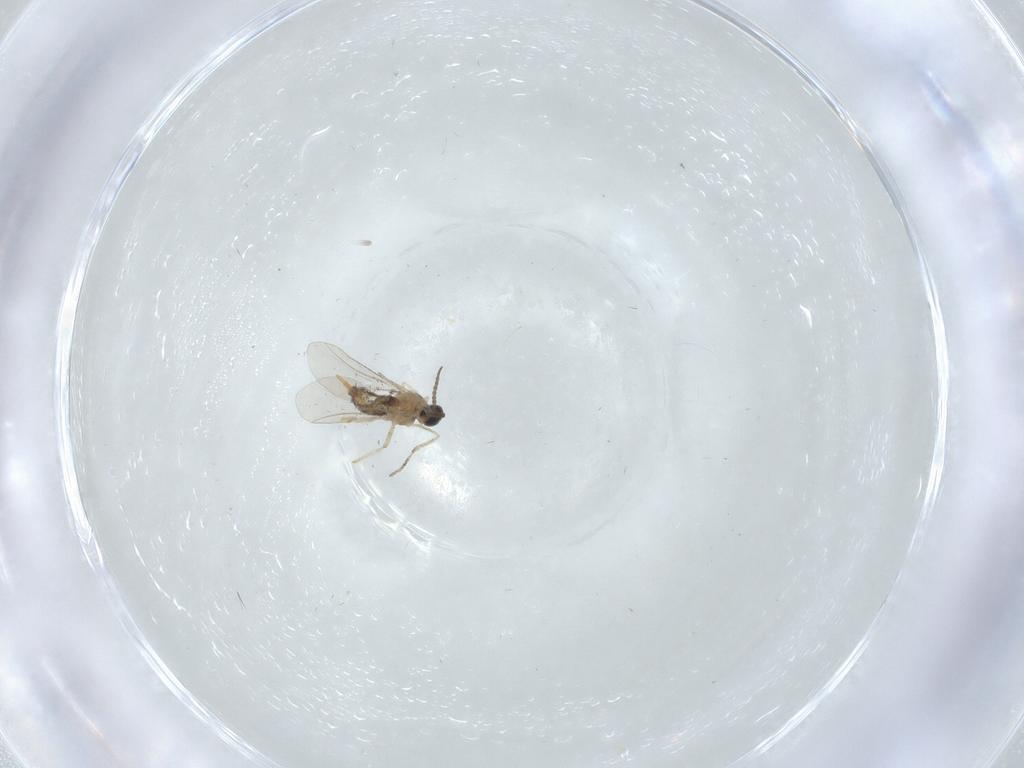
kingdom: Animalia
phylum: Arthropoda
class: Insecta
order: Diptera
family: Chironomidae
